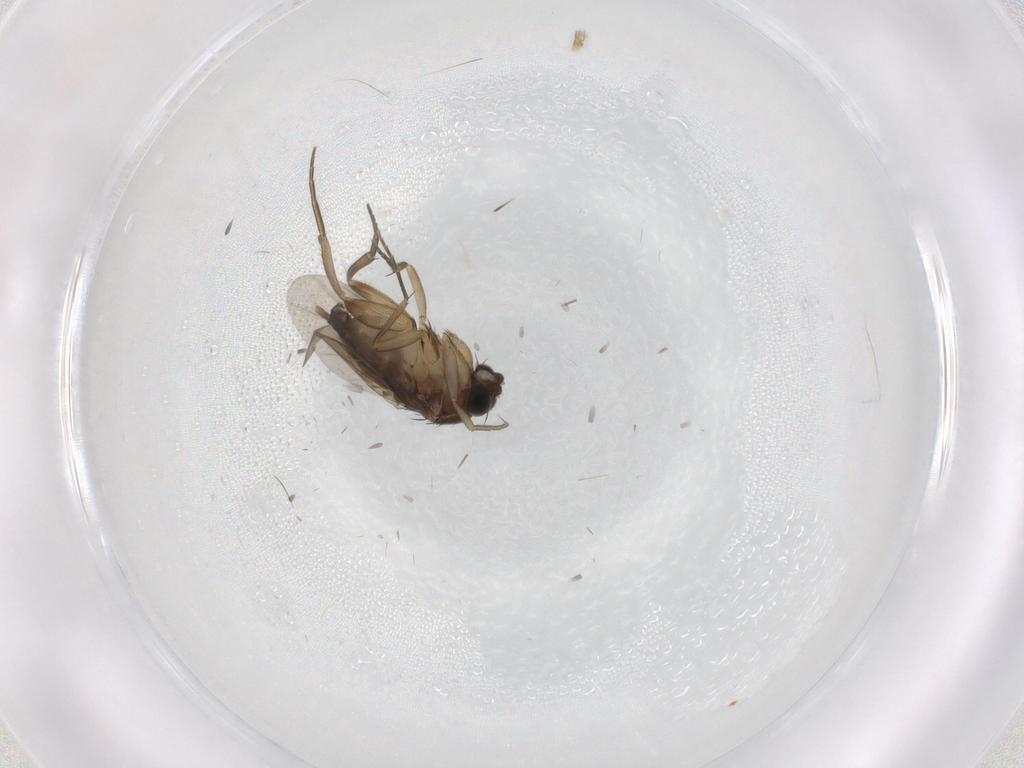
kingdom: Animalia
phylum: Arthropoda
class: Insecta
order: Diptera
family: Phoridae
